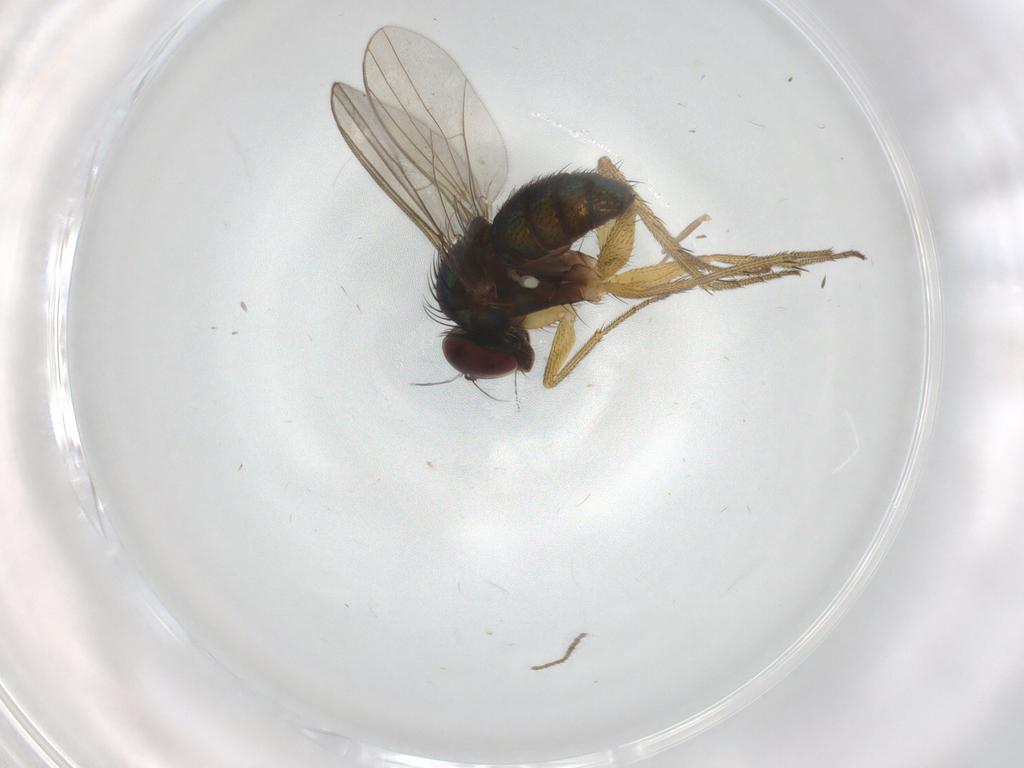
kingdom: Animalia
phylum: Arthropoda
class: Insecta
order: Diptera
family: Dolichopodidae
